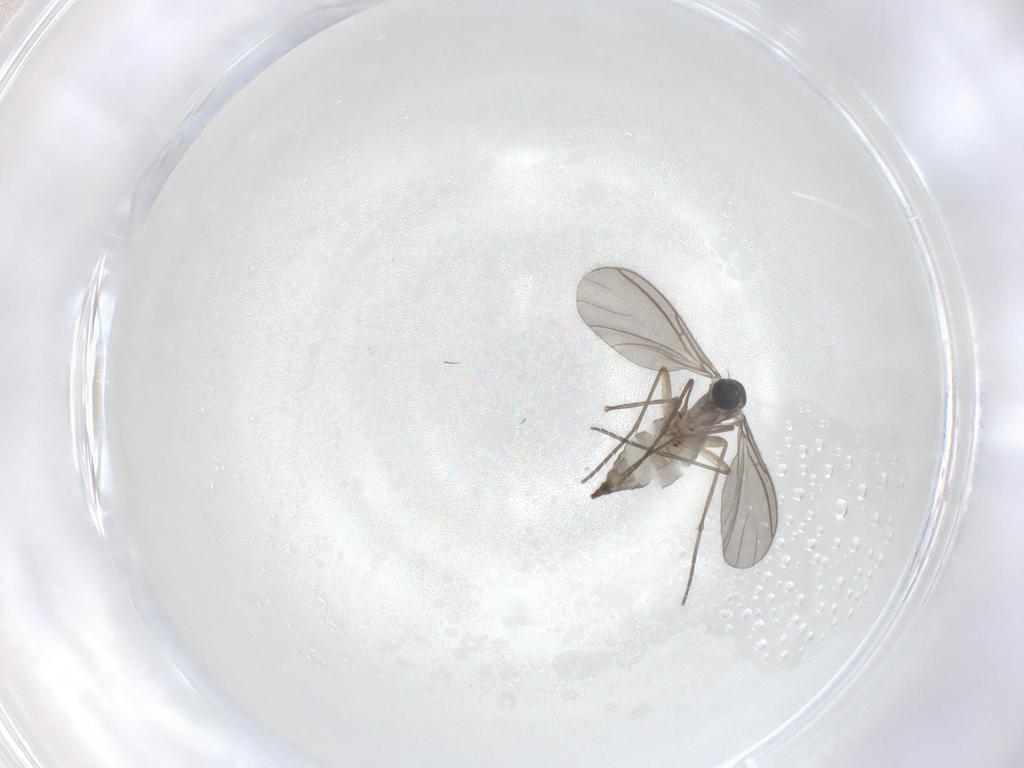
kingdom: Animalia
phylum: Arthropoda
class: Insecta
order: Diptera
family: Sciaridae
